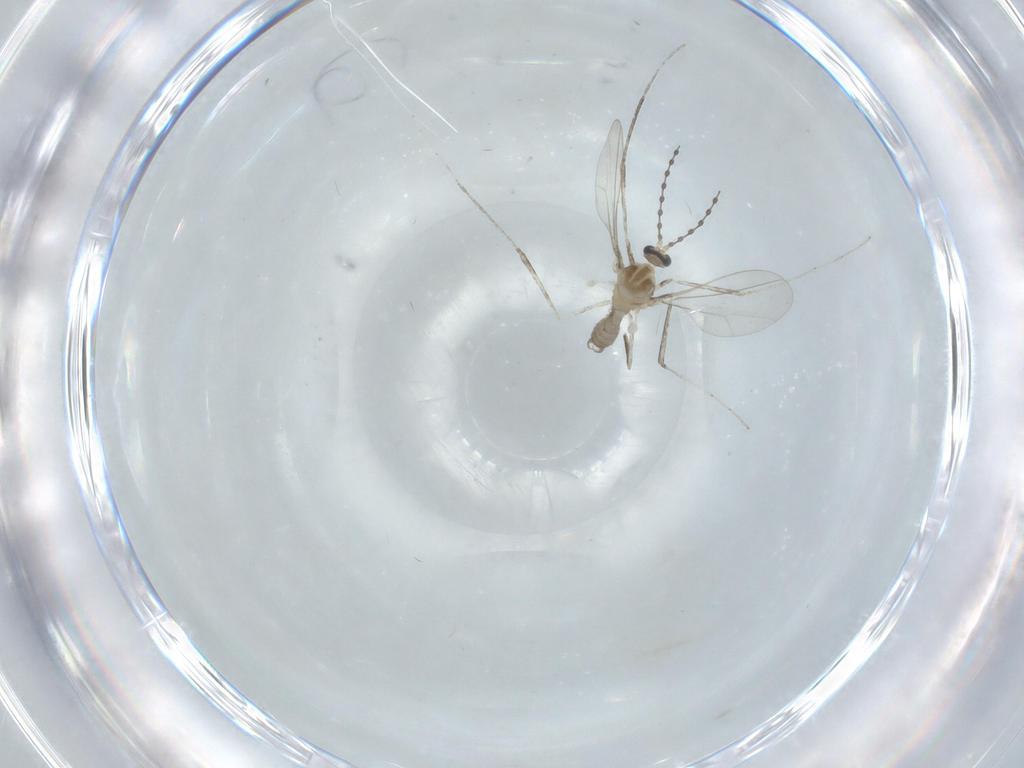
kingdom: Animalia
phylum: Arthropoda
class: Insecta
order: Diptera
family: Cecidomyiidae
